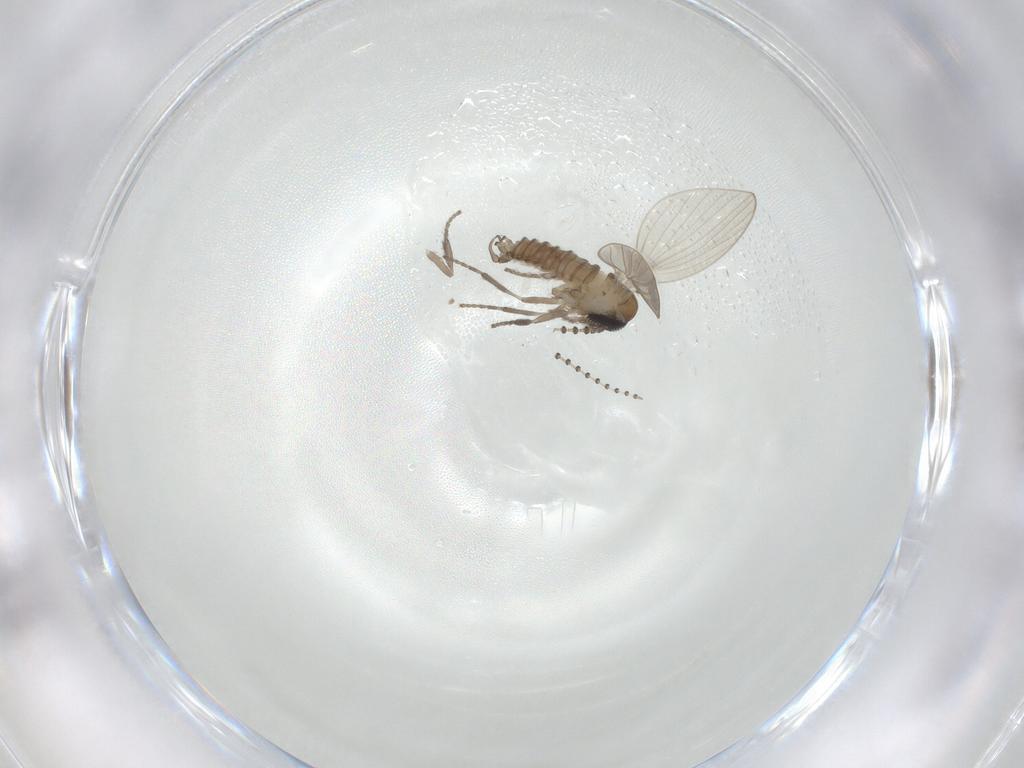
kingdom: Animalia
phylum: Arthropoda
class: Insecta
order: Diptera
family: Psychodidae
